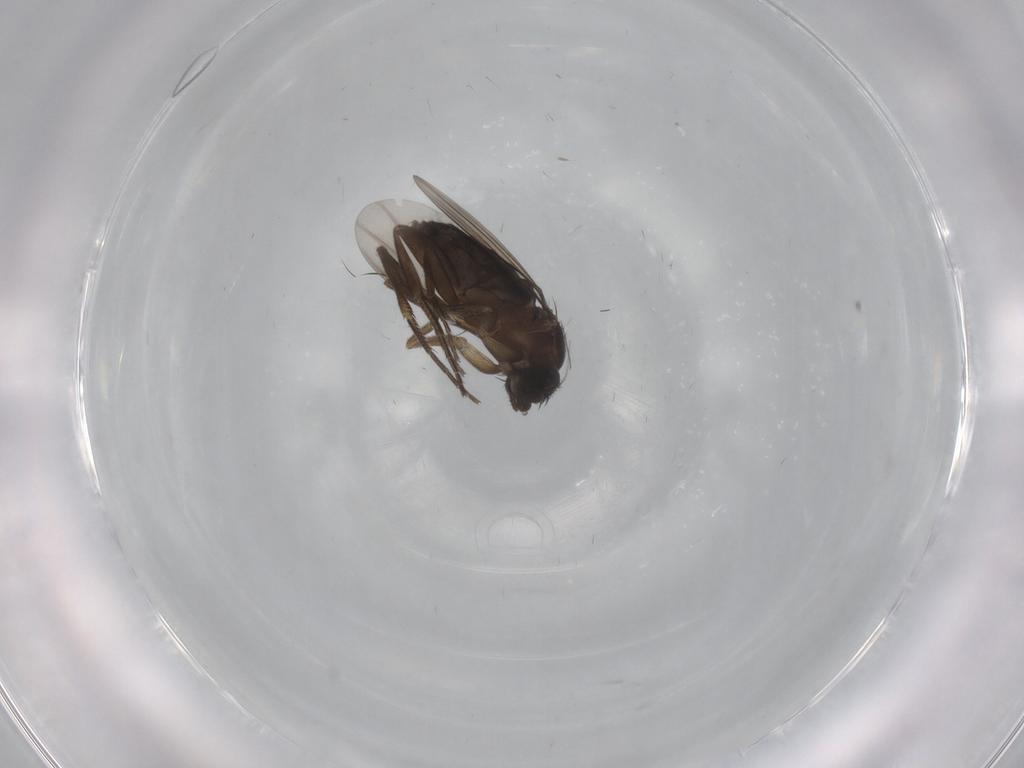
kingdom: Animalia
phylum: Arthropoda
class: Insecta
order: Diptera
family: Phoridae
